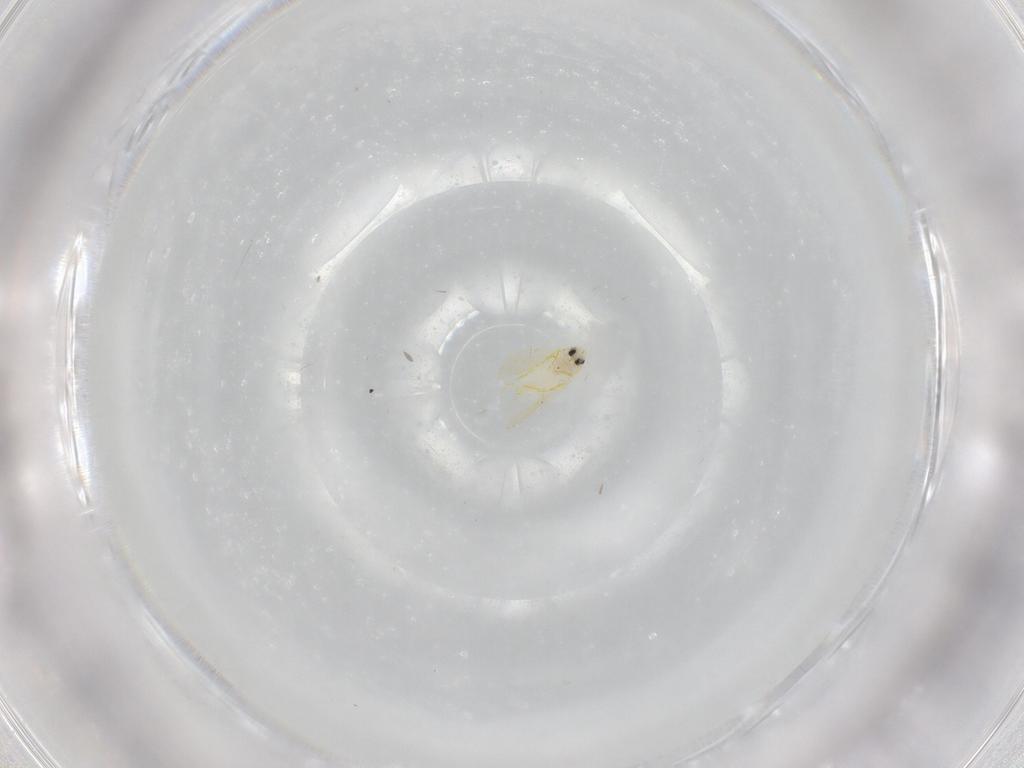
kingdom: Animalia
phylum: Arthropoda
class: Insecta
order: Hemiptera
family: Aleyrodidae
